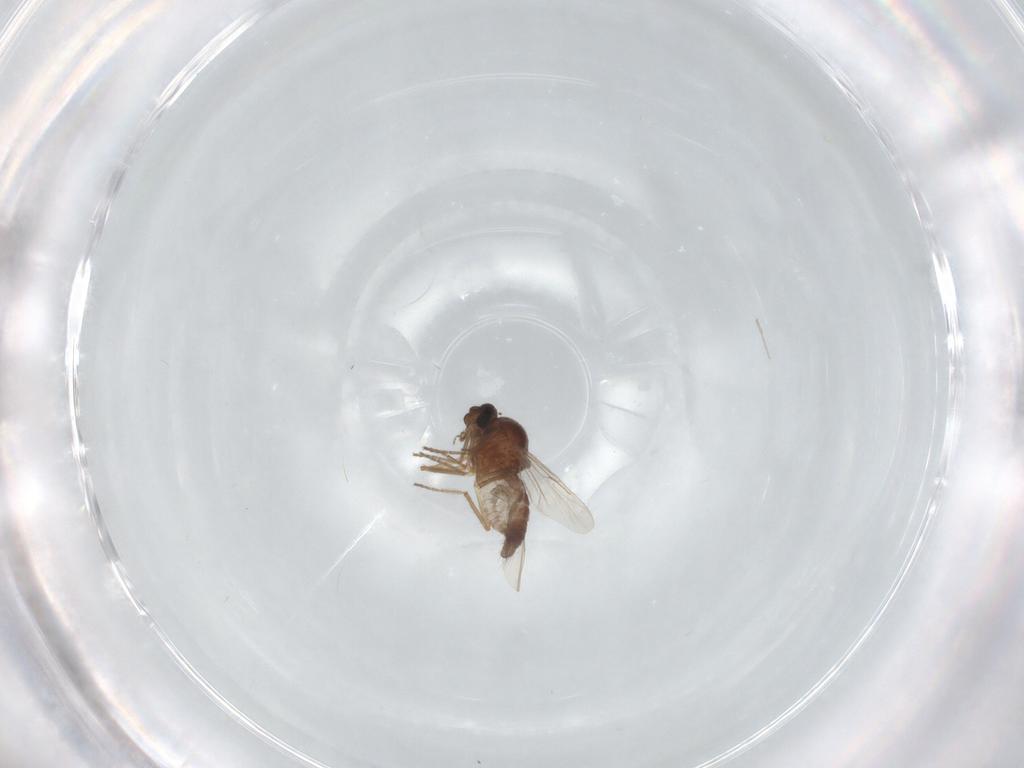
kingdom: Animalia
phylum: Arthropoda
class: Insecta
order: Diptera
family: Ceratopogonidae
